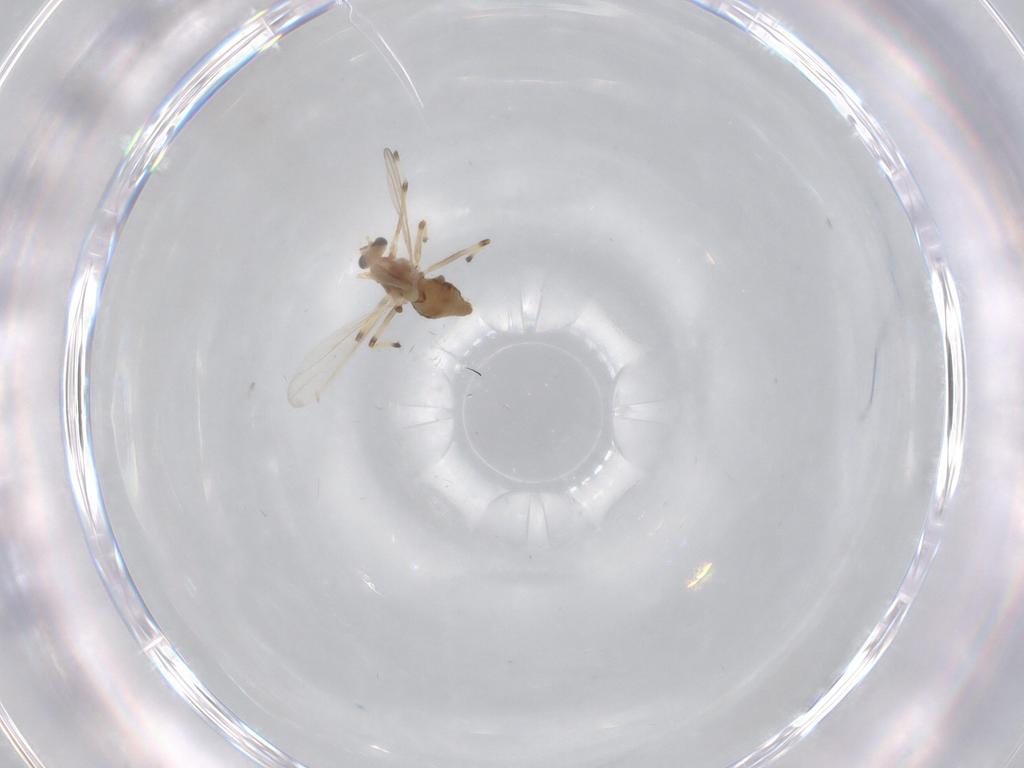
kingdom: Animalia
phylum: Arthropoda
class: Insecta
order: Diptera
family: Chironomidae
